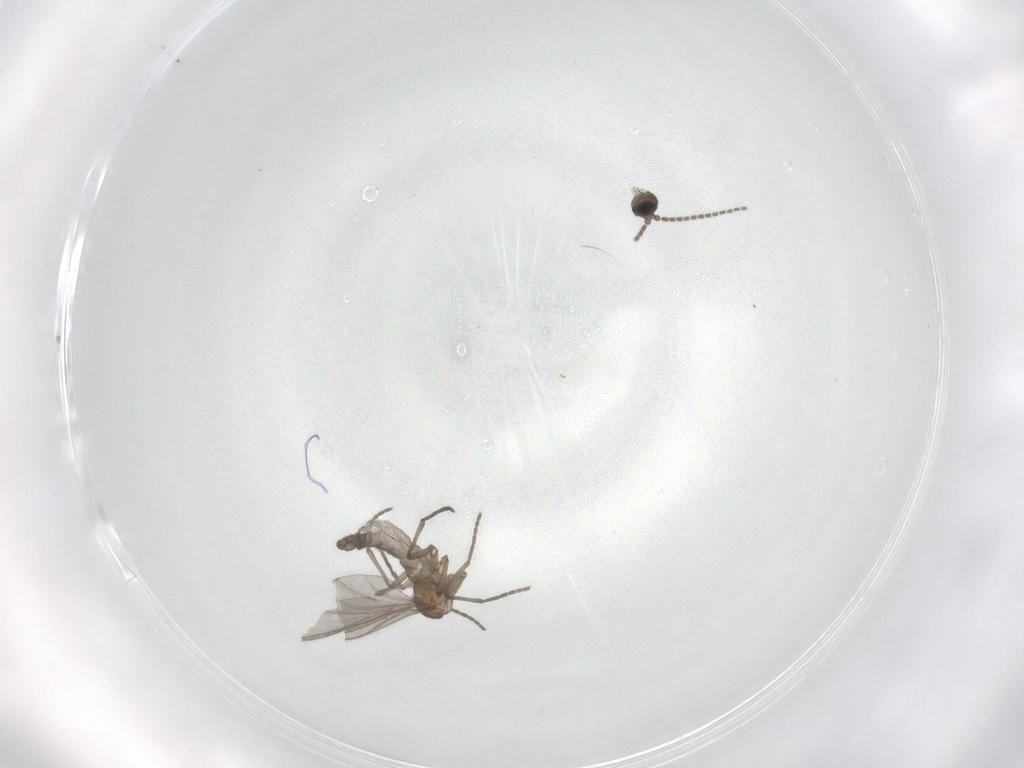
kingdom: Animalia
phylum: Arthropoda
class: Insecta
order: Diptera
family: Sciaridae
